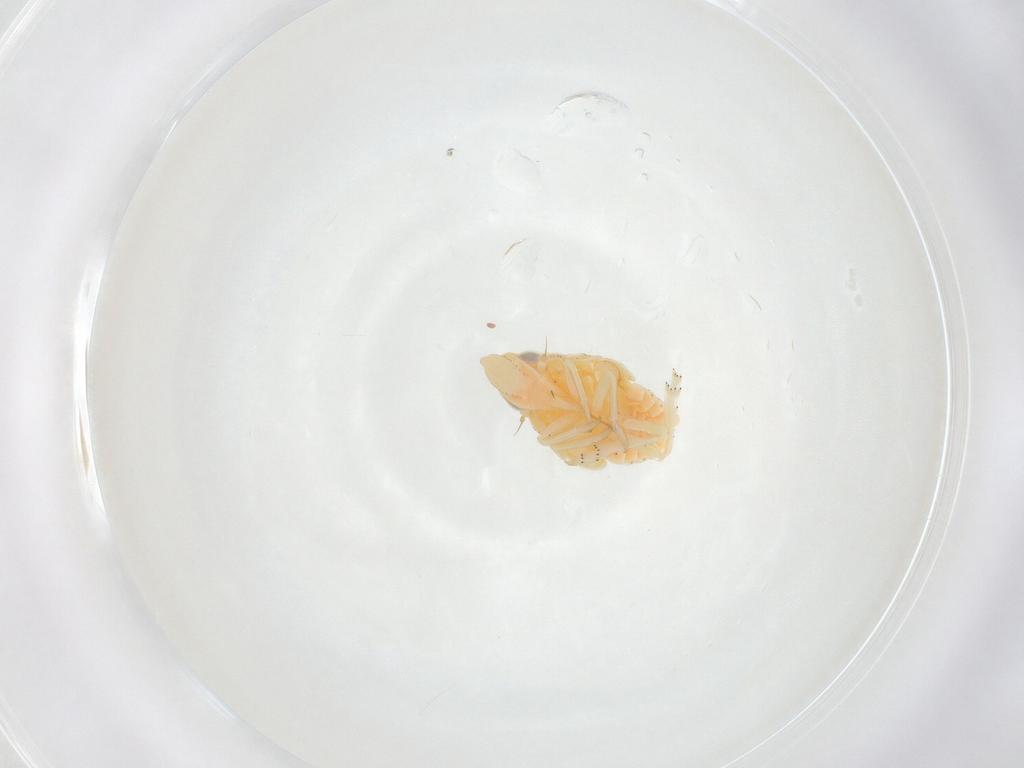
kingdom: Animalia
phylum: Arthropoda
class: Insecta
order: Hemiptera
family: Flatidae
